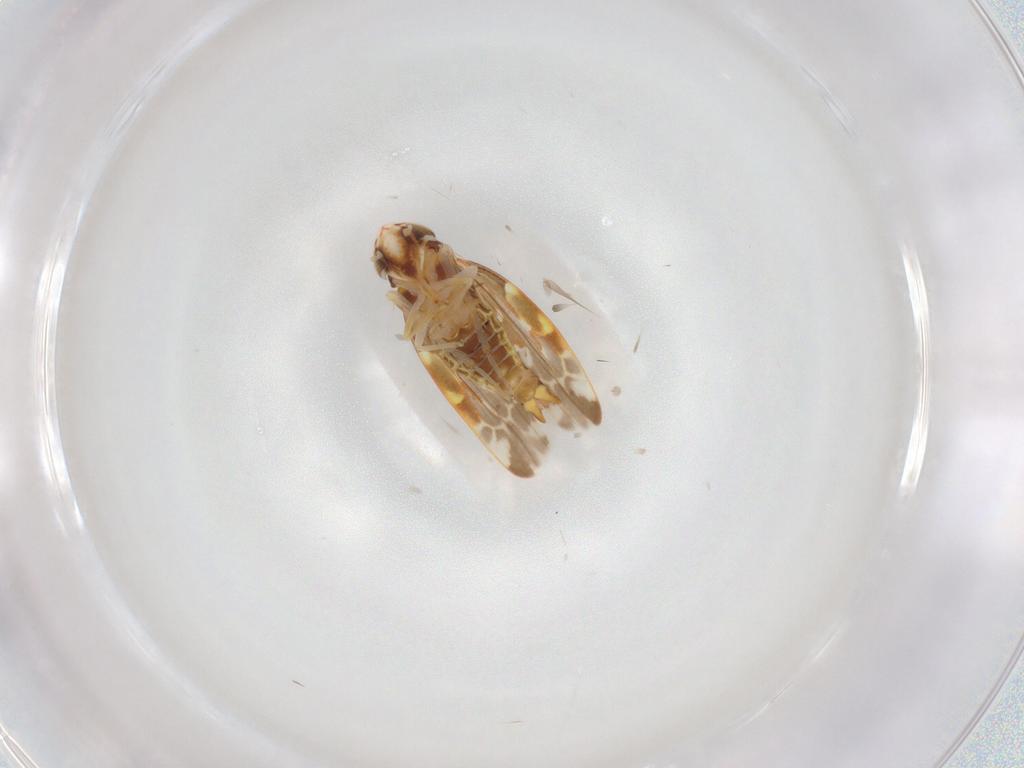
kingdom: Animalia
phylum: Arthropoda
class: Insecta
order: Hemiptera
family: Cicadellidae
